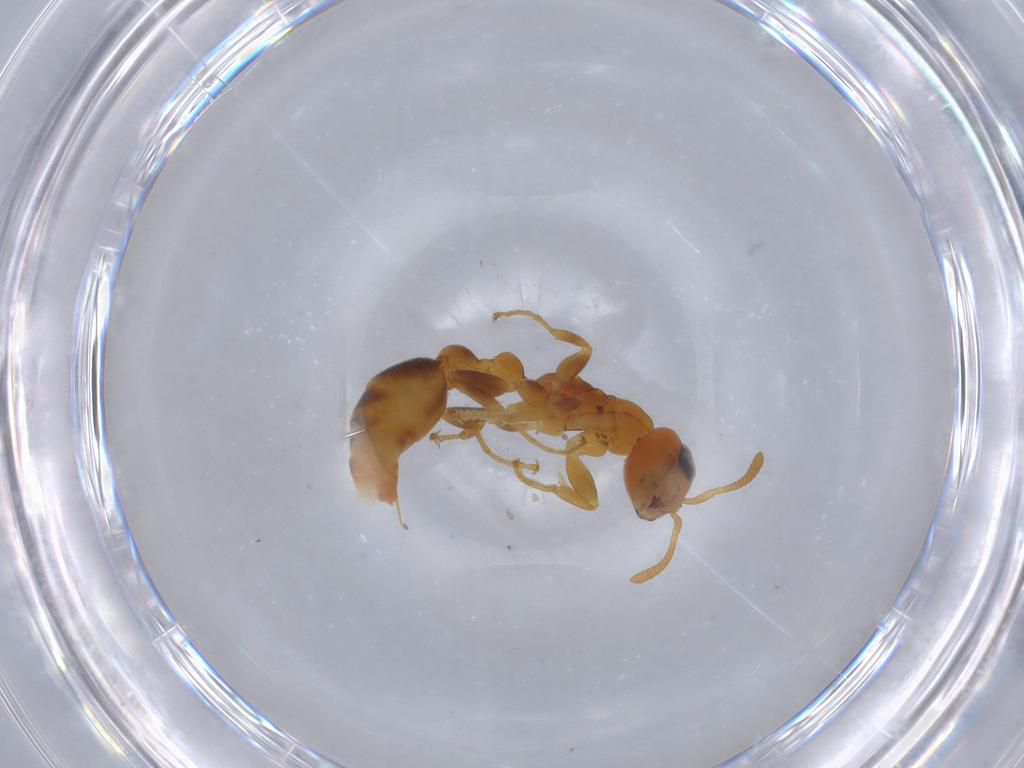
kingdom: Animalia
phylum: Arthropoda
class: Insecta
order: Hymenoptera
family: Formicidae
